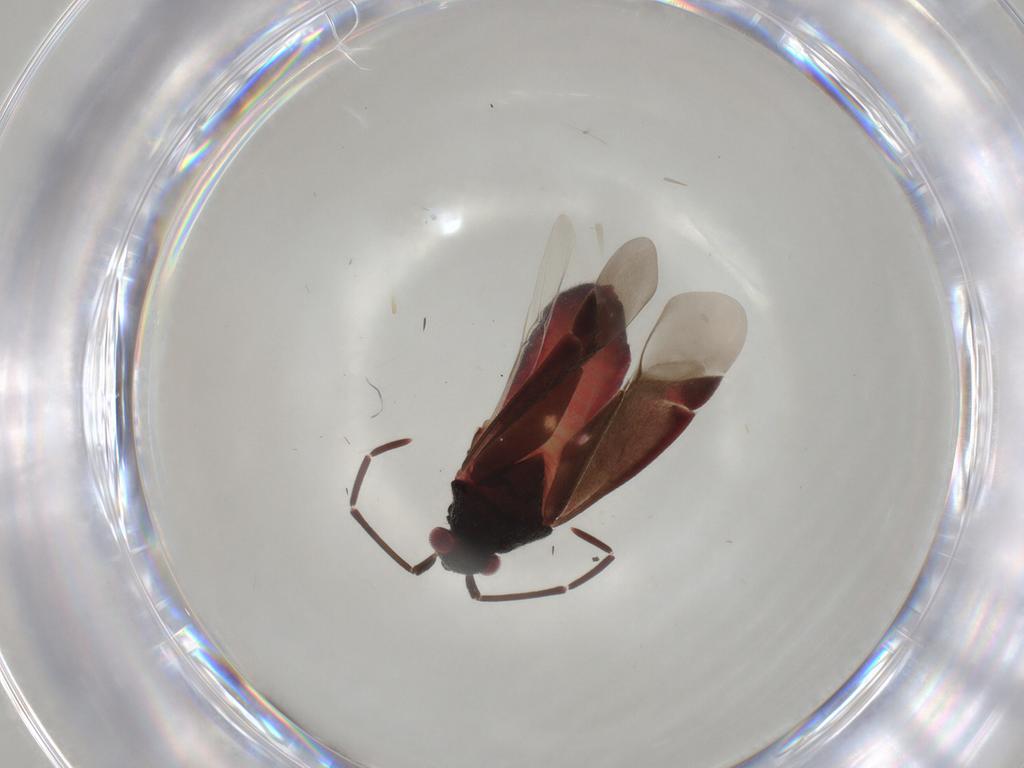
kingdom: Animalia
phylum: Arthropoda
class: Insecta
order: Hemiptera
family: Miridae
